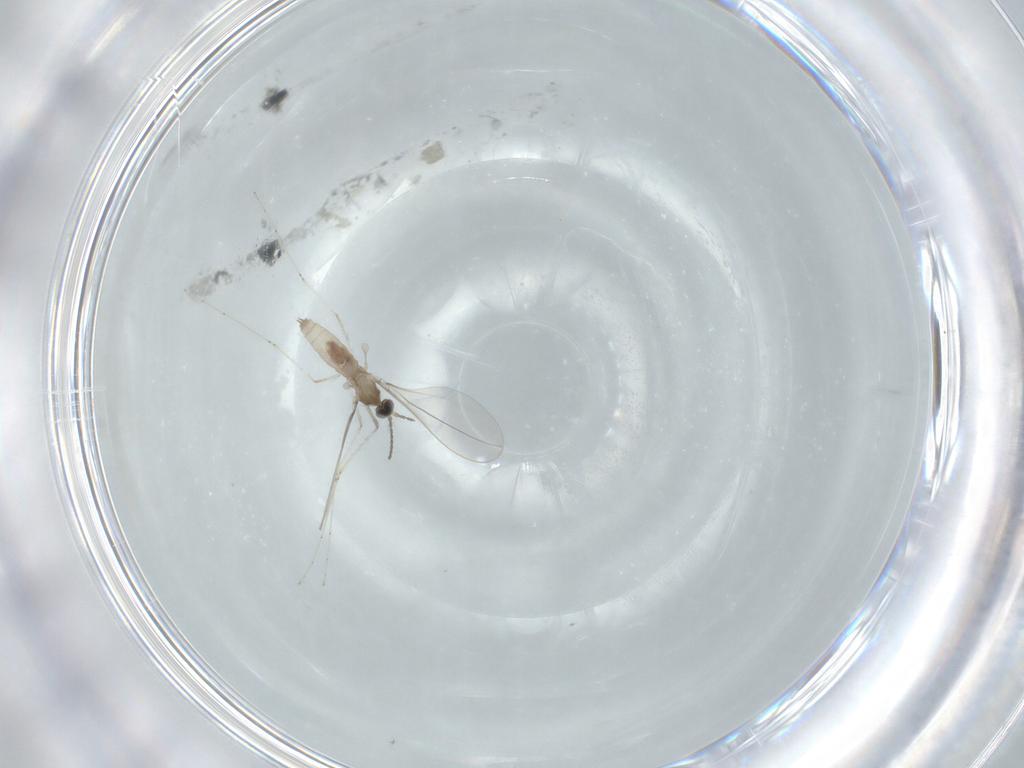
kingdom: Animalia
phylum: Arthropoda
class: Insecta
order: Diptera
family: Cecidomyiidae
